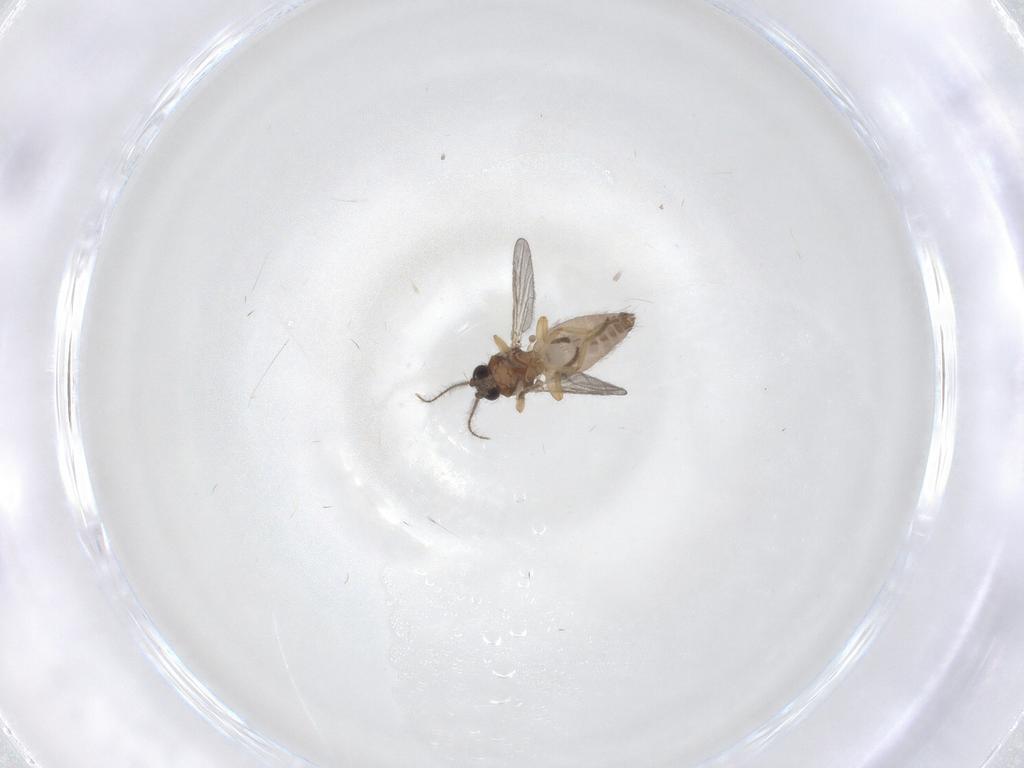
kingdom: Animalia
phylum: Arthropoda
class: Insecta
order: Diptera
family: Ceratopogonidae
